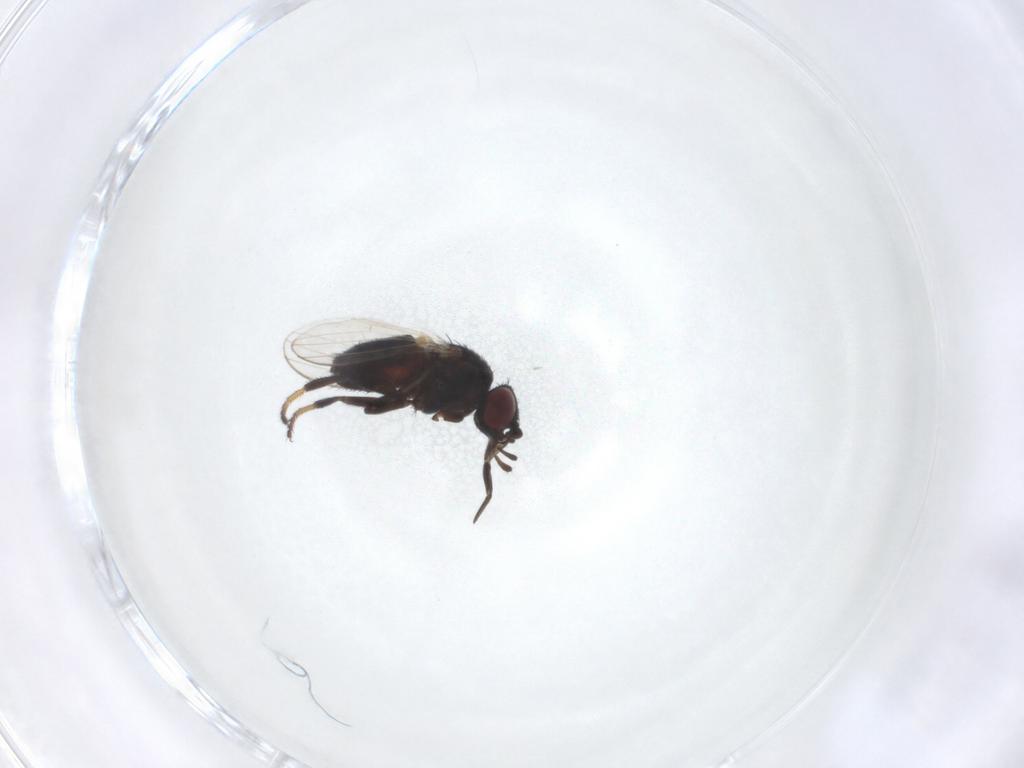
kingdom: Animalia
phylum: Arthropoda
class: Insecta
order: Diptera
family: Milichiidae
